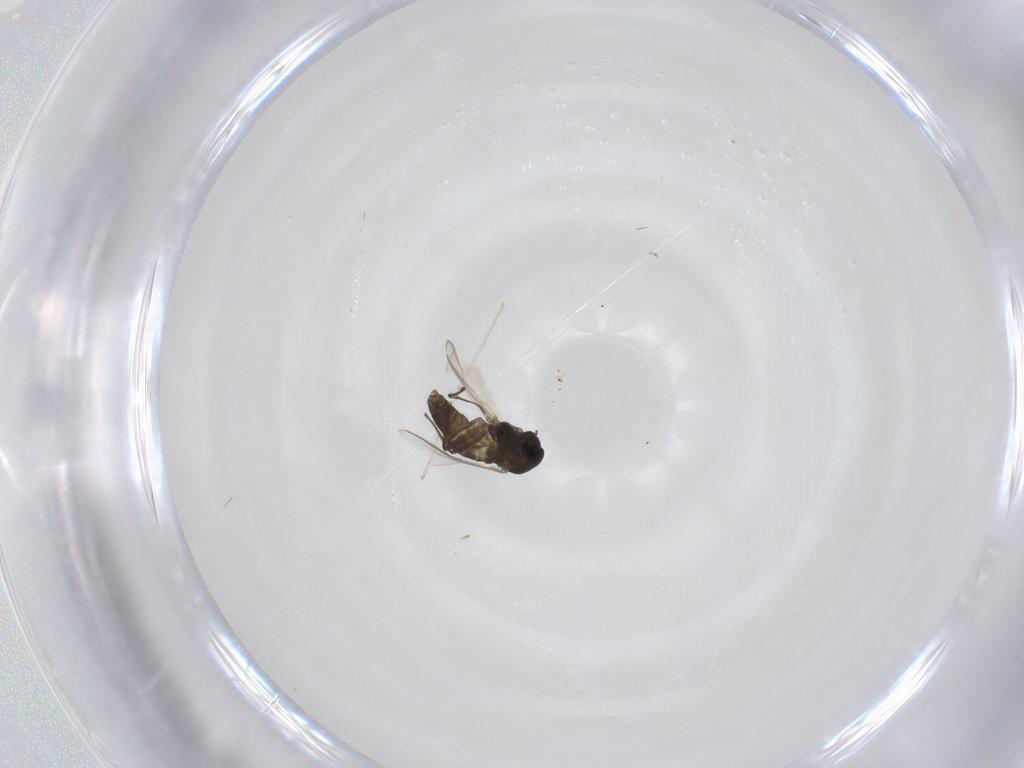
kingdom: Animalia
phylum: Arthropoda
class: Insecta
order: Diptera
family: Chironomidae
